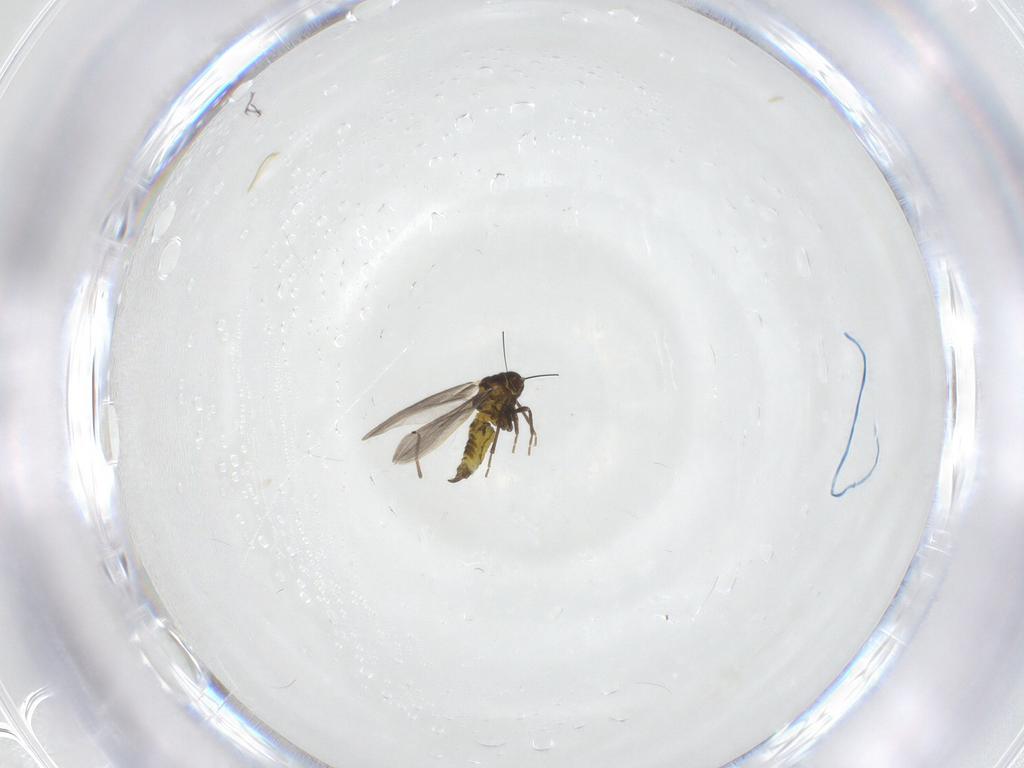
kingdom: Animalia
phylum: Arthropoda
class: Insecta
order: Hemiptera
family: Aleyrodidae
